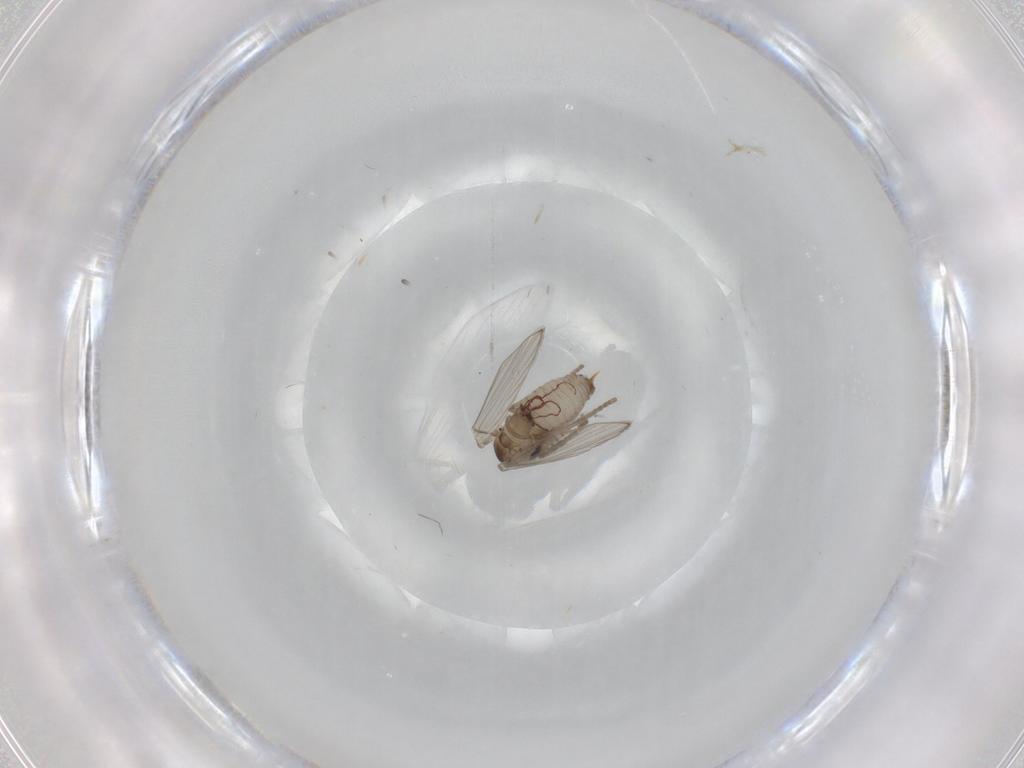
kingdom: Animalia
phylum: Arthropoda
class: Insecta
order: Diptera
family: Psychodidae
